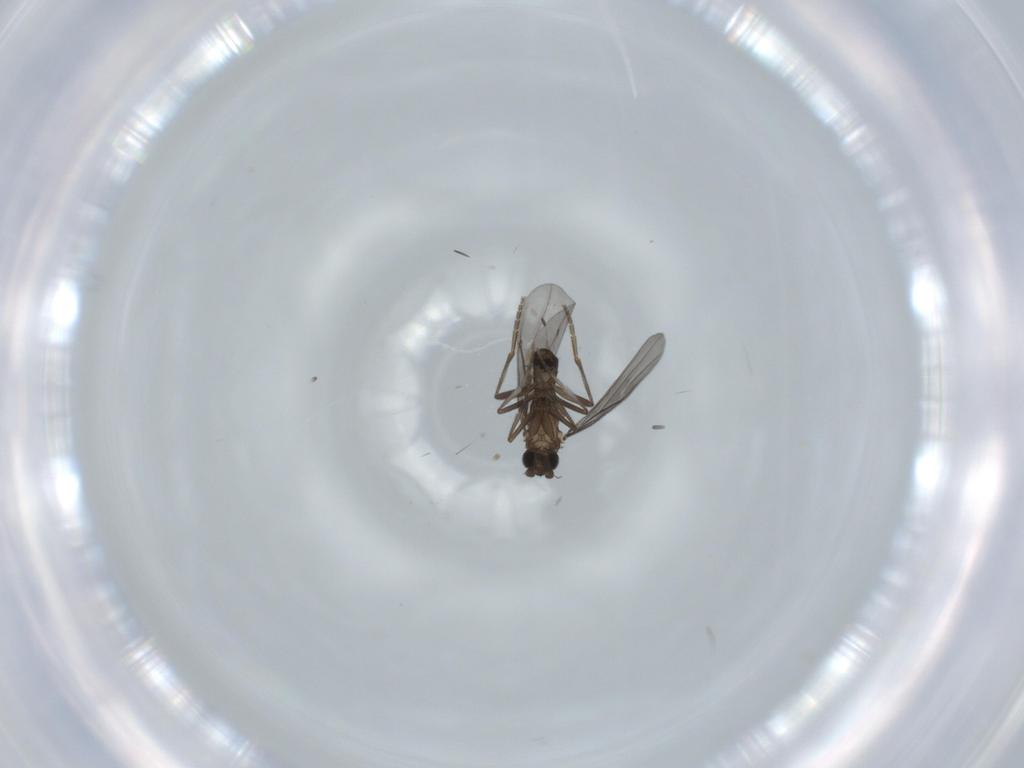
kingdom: Animalia
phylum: Arthropoda
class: Insecta
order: Diptera
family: Phoridae
